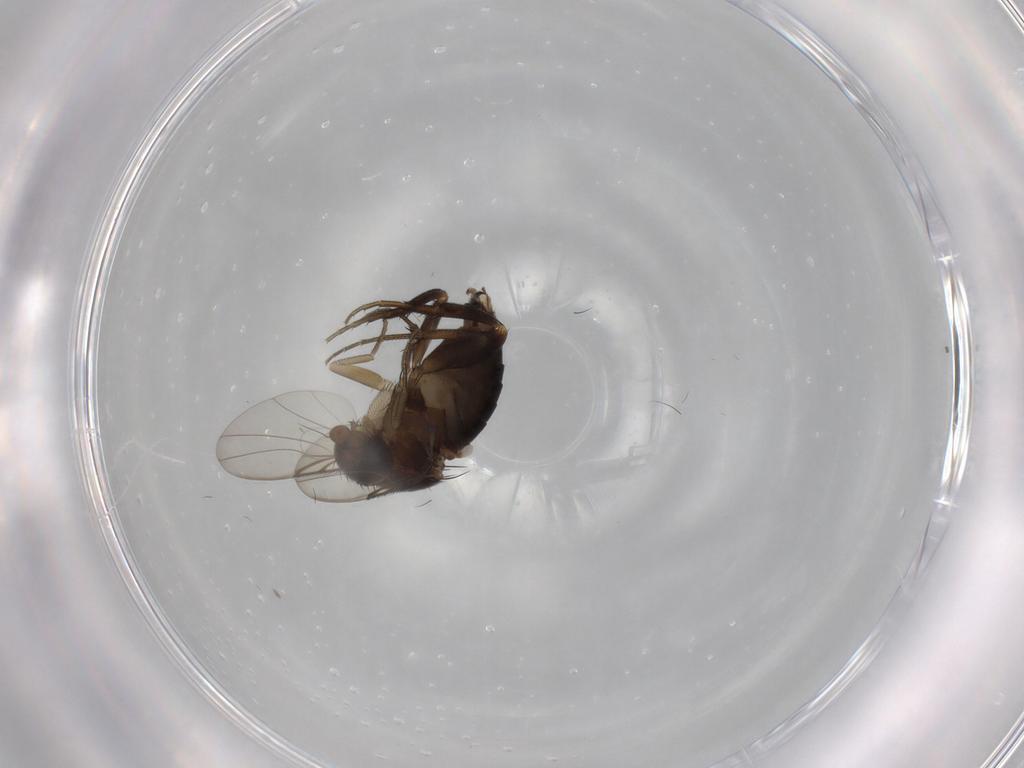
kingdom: Animalia
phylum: Arthropoda
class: Insecta
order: Diptera
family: Phoridae
